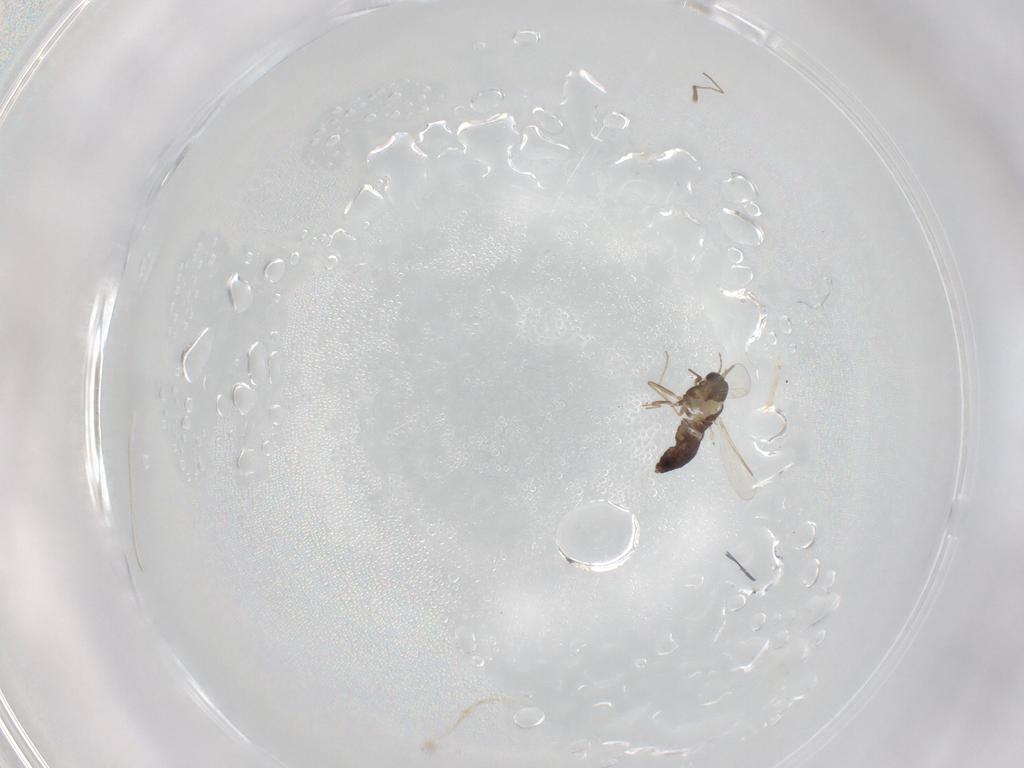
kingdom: Animalia
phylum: Arthropoda
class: Insecta
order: Diptera
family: Chironomidae
